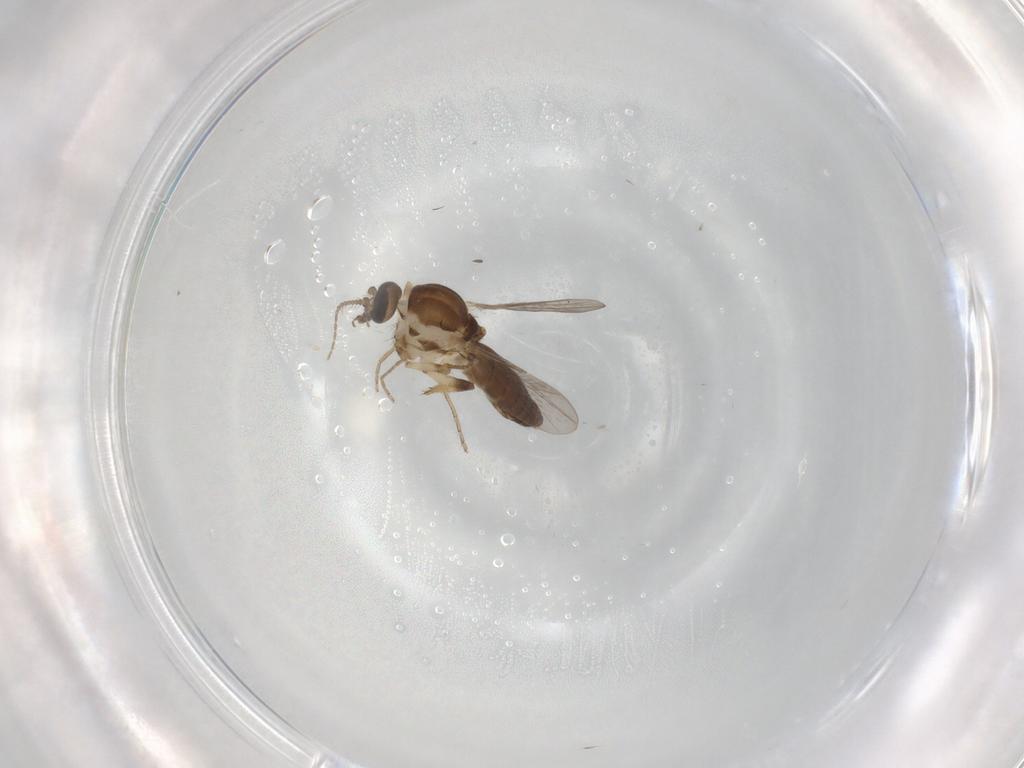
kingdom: Animalia
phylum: Arthropoda
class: Insecta
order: Diptera
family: Ceratopogonidae
